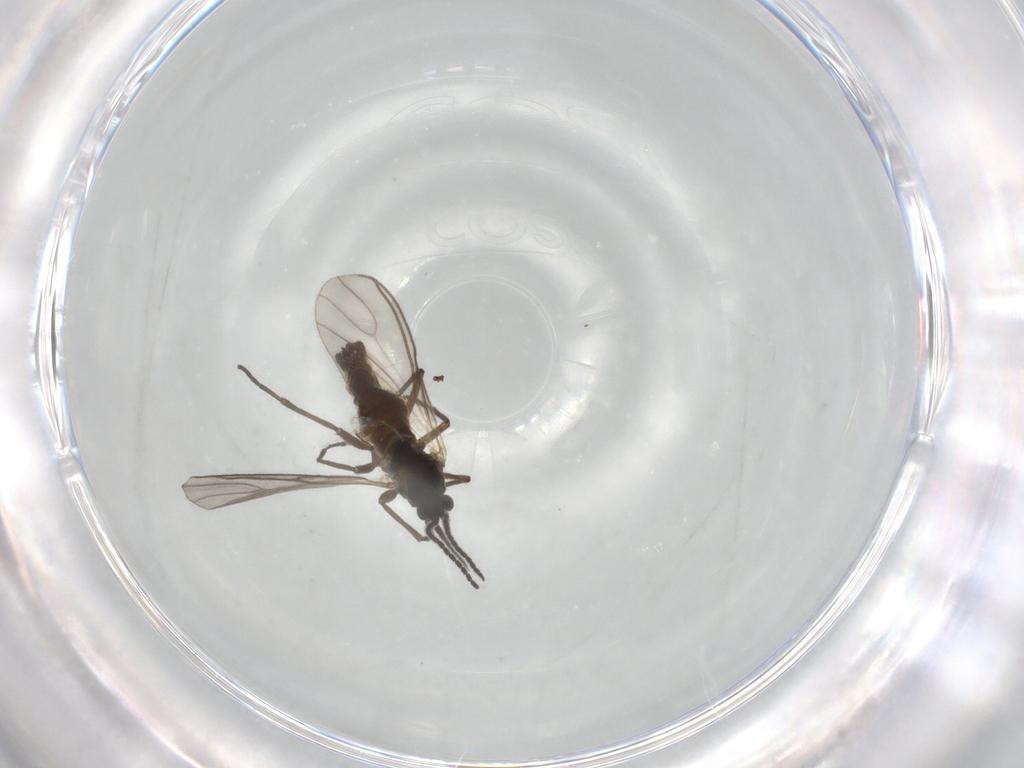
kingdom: Animalia
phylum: Arthropoda
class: Insecta
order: Diptera
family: Sciaridae
